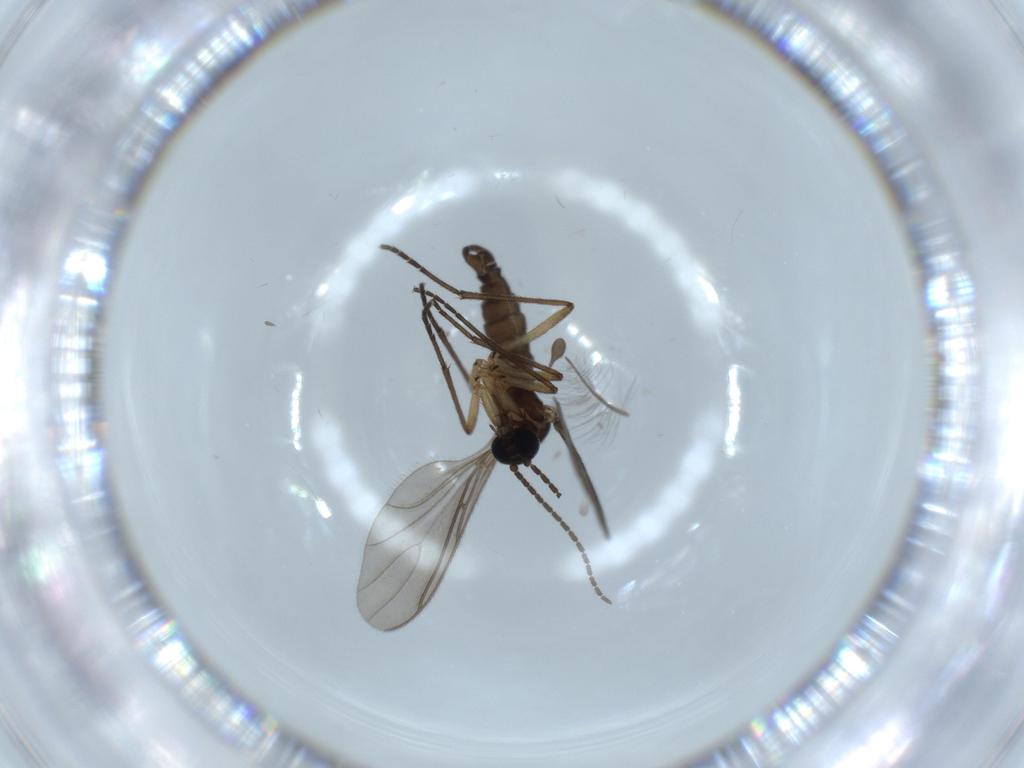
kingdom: Animalia
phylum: Arthropoda
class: Insecta
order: Diptera
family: Chironomidae
